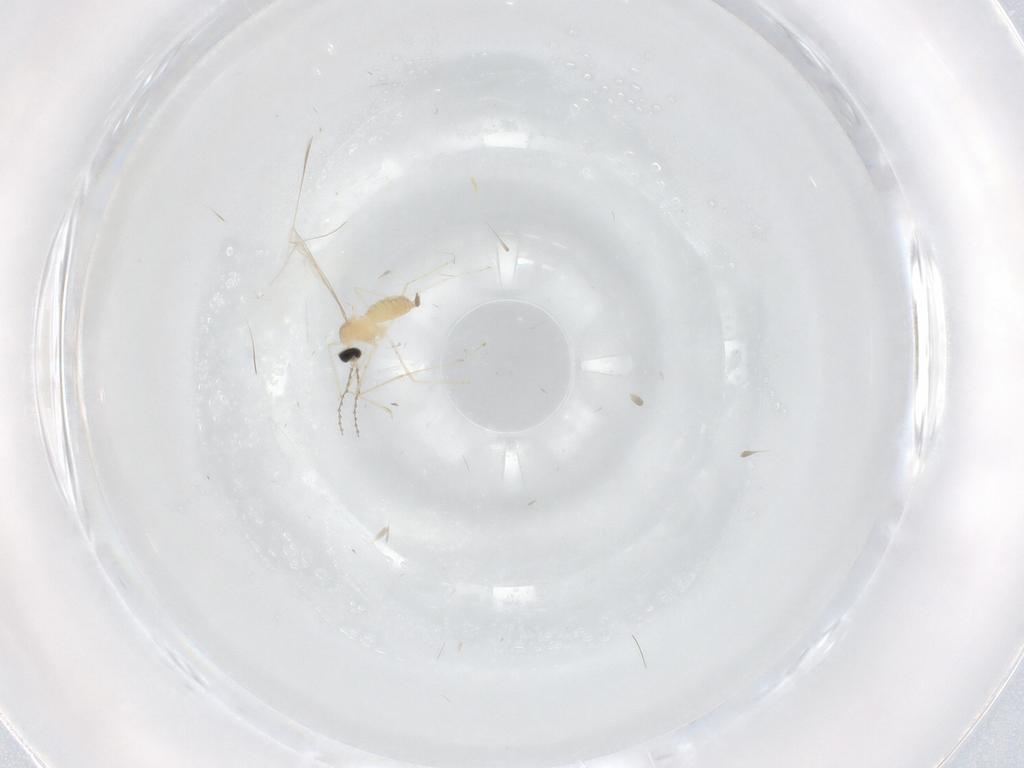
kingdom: Animalia
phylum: Arthropoda
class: Insecta
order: Diptera
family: Cecidomyiidae
